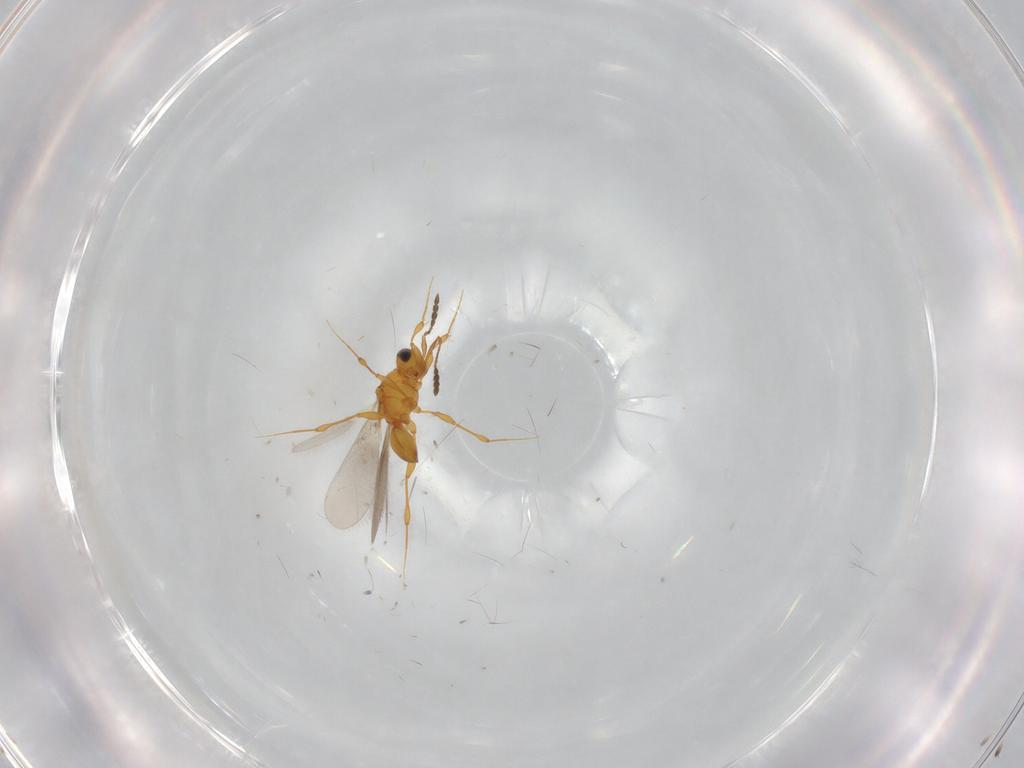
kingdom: Animalia
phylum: Arthropoda
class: Insecta
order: Hymenoptera
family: Platygastridae
